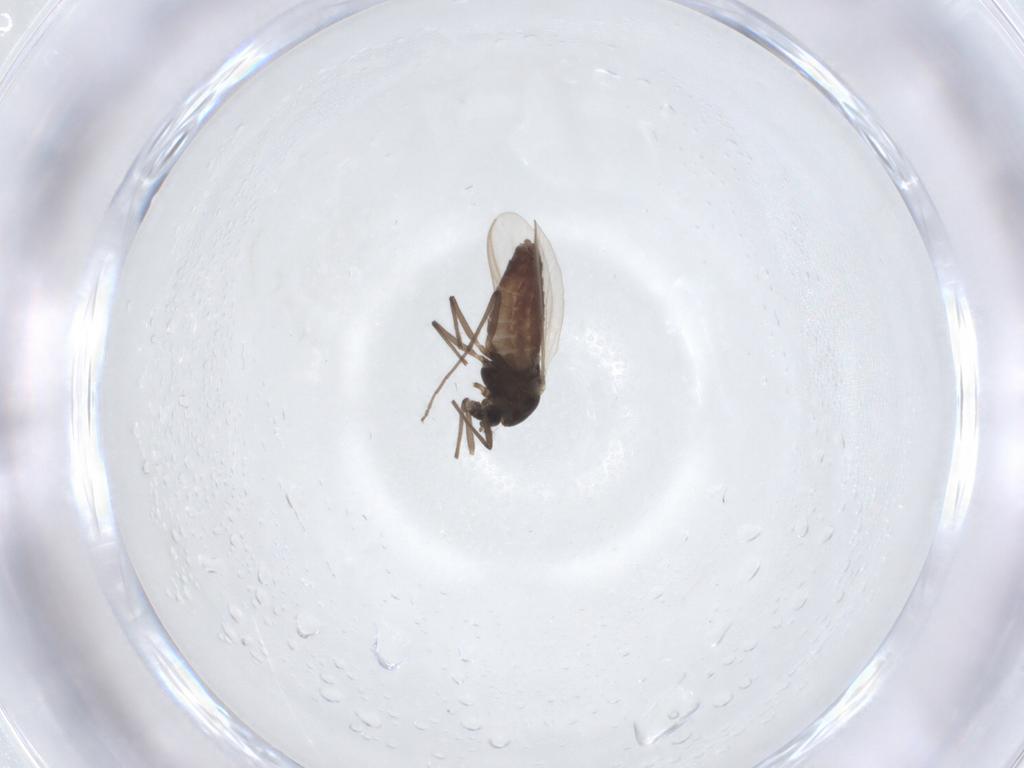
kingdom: Animalia
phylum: Arthropoda
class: Insecta
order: Diptera
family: Chironomidae
